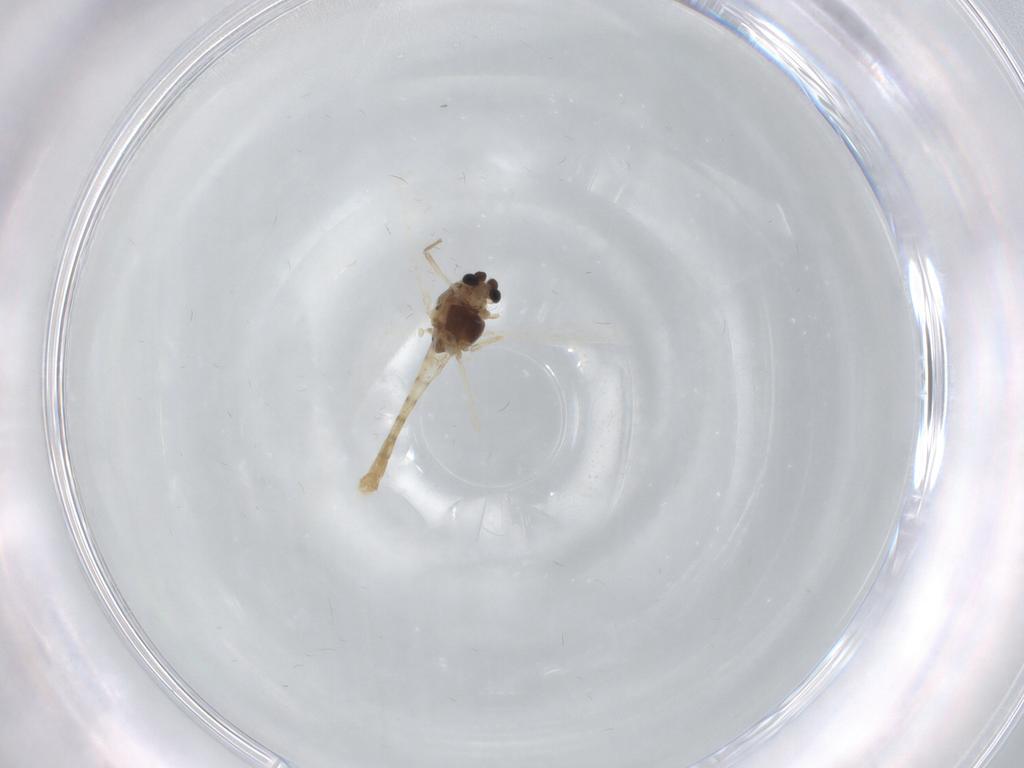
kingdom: Animalia
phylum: Arthropoda
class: Insecta
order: Diptera
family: Chironomidae
